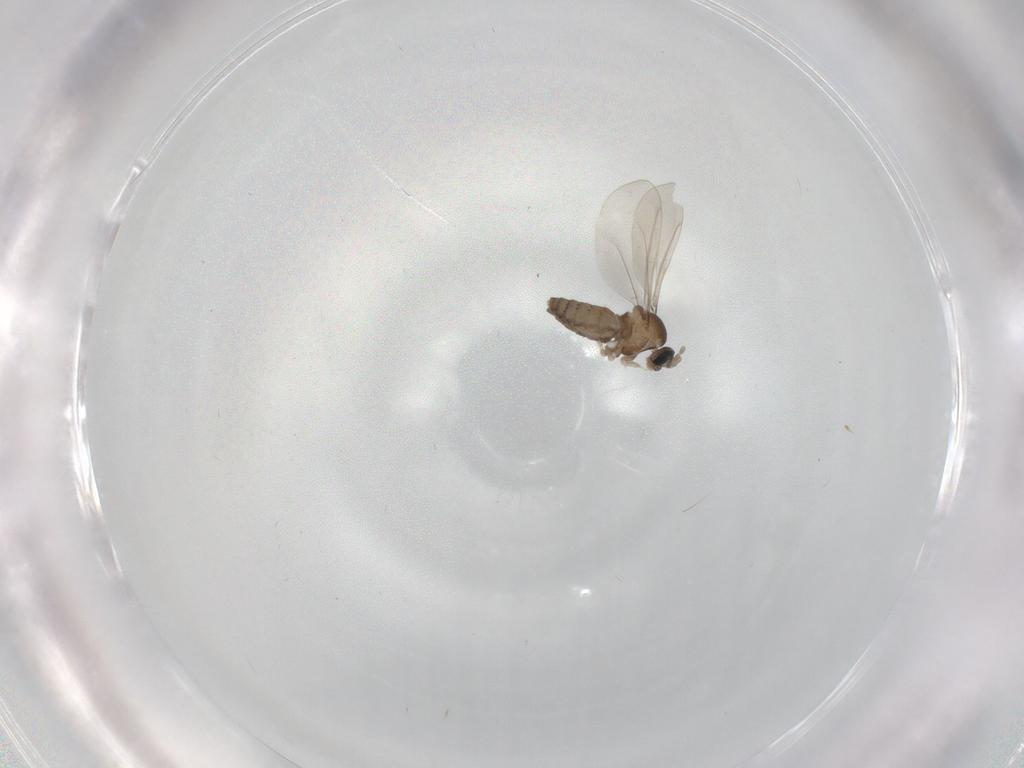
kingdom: Animalia
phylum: Arthropoda
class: Insecta
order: Diptera
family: Cecidomyiidae
